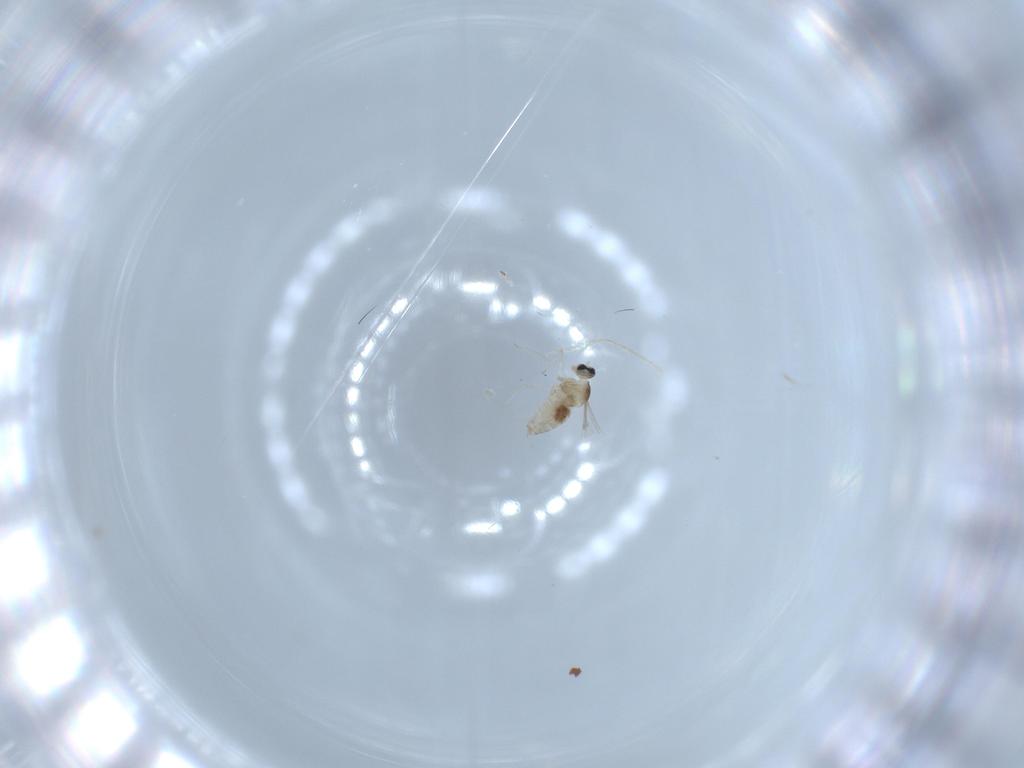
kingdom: Animalia
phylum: Arthropoda
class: Insecta
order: Diptera
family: Cecidomyiidae
